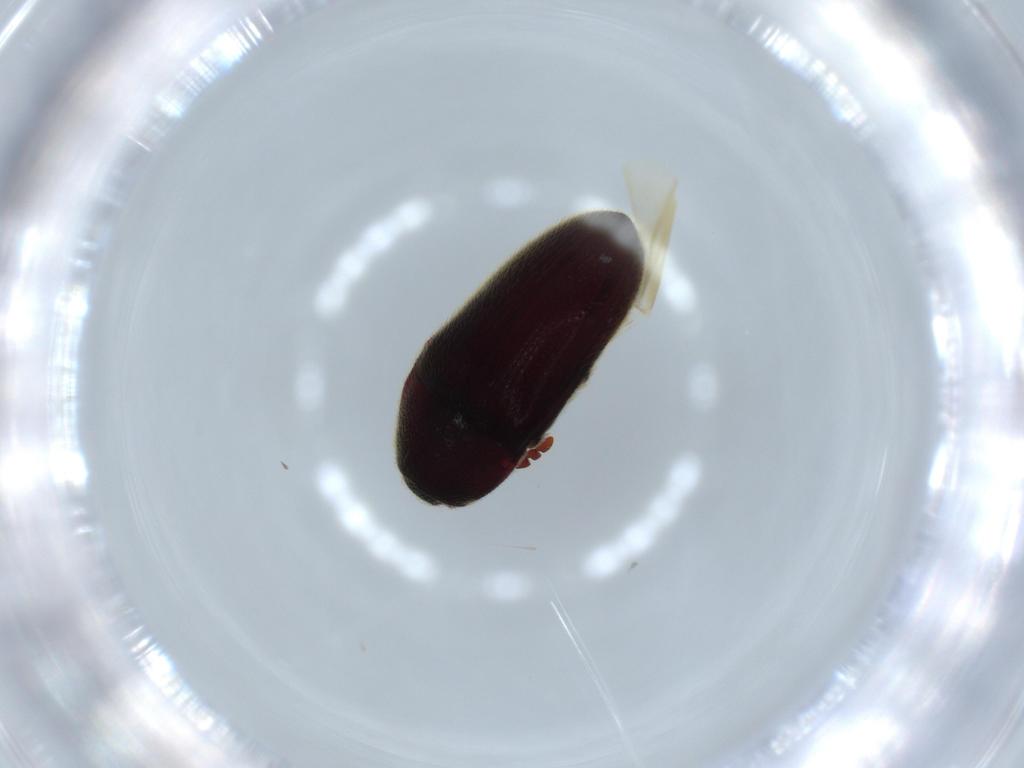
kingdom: Animalia
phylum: Arthropoda
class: Insecta
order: Coleoptera
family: Throscidae
